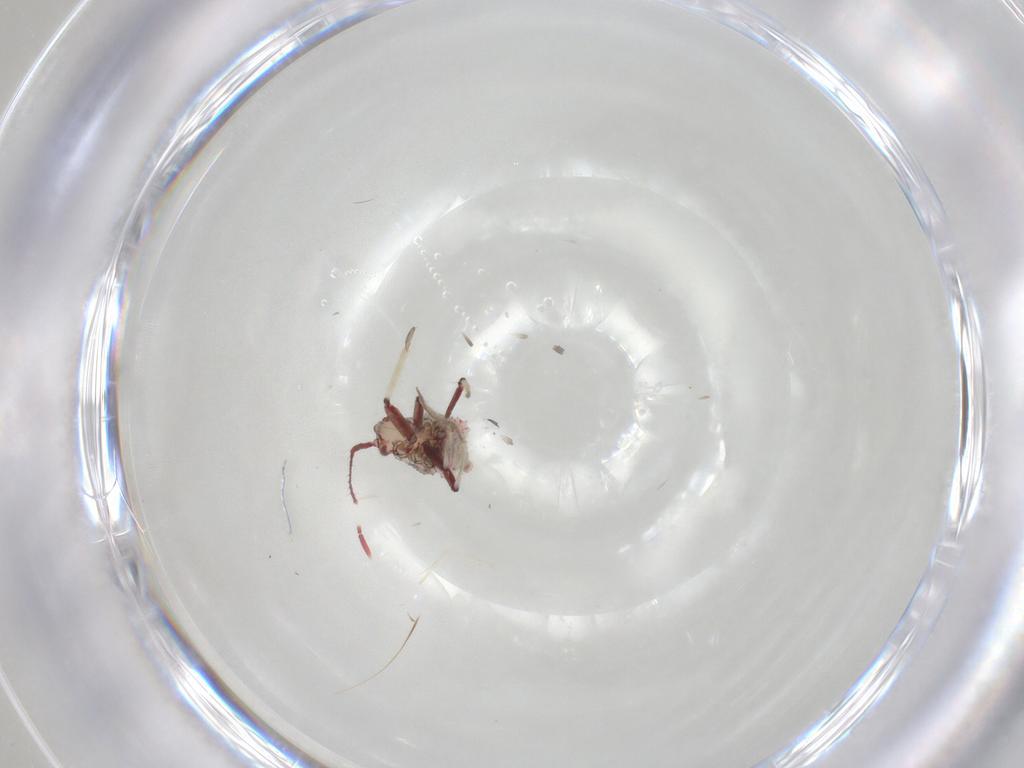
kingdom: Animalia
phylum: Arthropoda
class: Insecta
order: Hemiptera
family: Miridae
